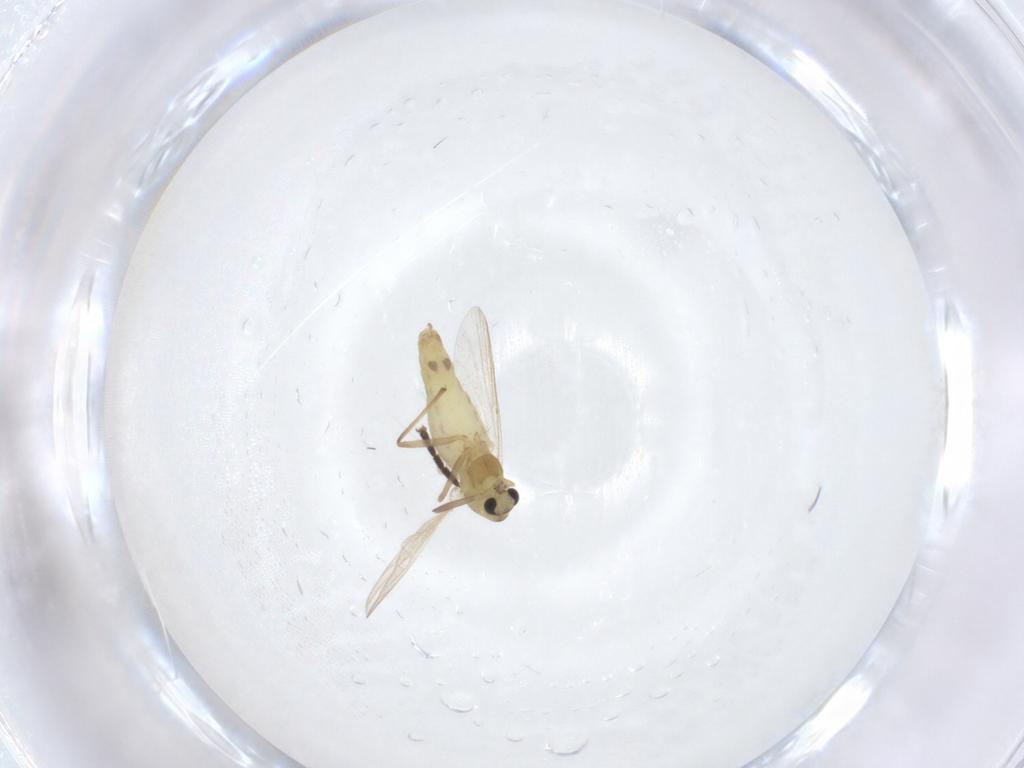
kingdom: Animalia
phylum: Arthropoda
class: Insecta
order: Diptera
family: Chironomidae
